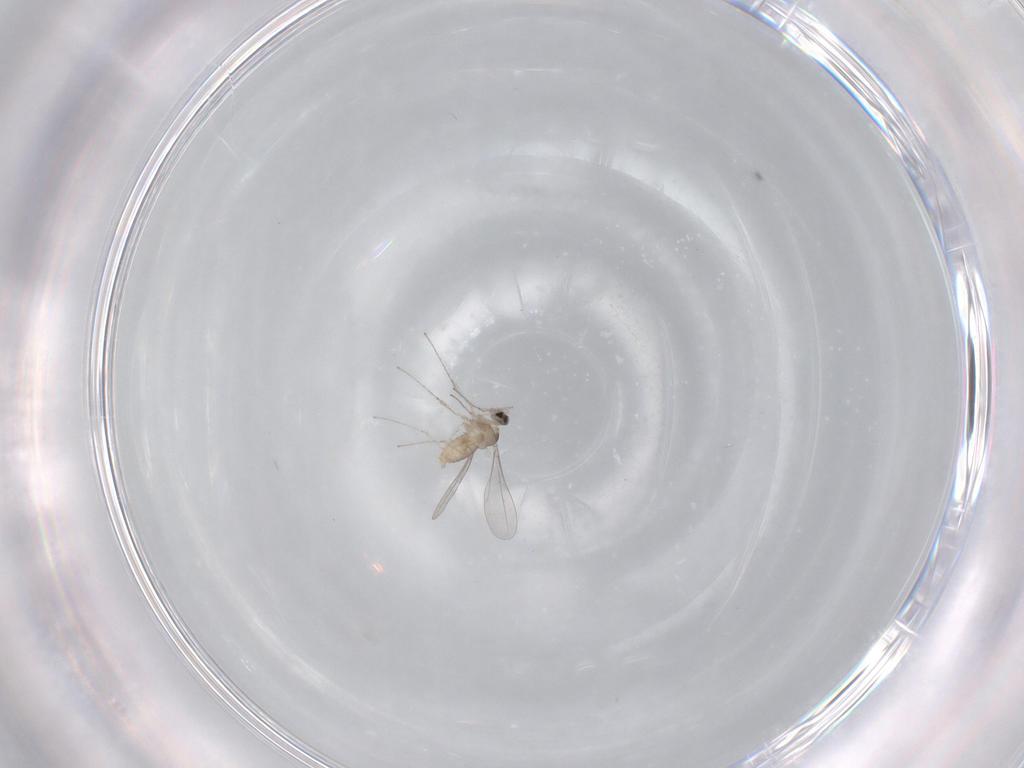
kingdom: Animalia
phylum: Arthropoda
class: Insecta
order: Diptera
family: Cecidomyiidae
